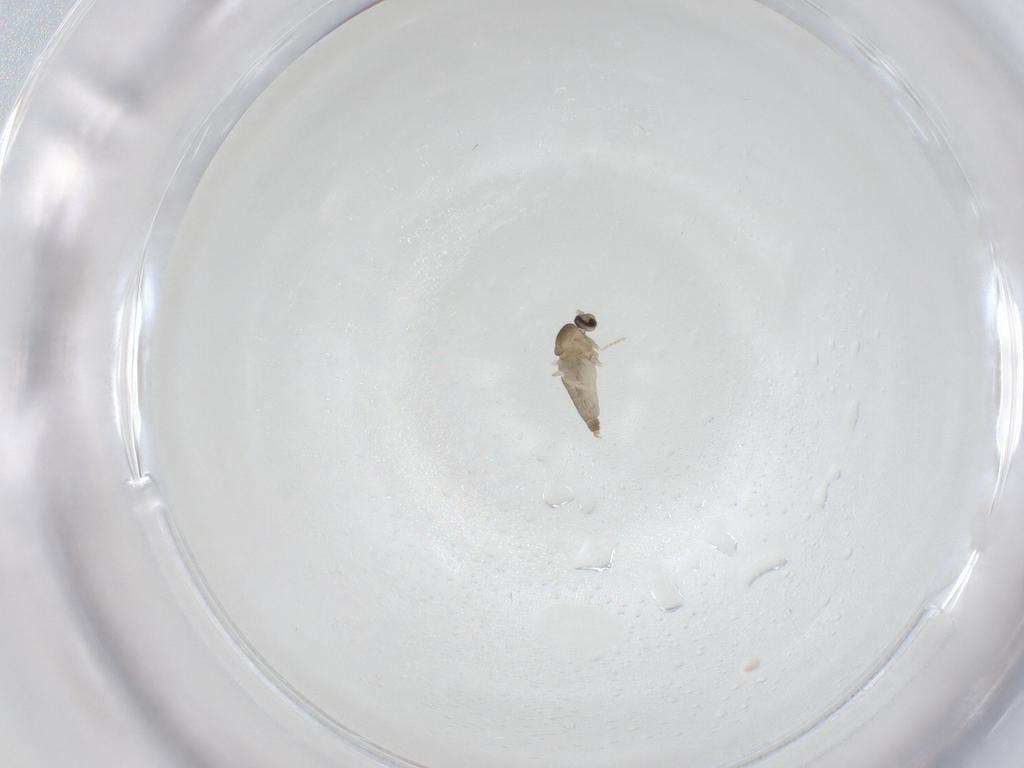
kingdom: Animalia
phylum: Arthropoda
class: Insecta
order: Diptera
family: Cecidomyiidae
